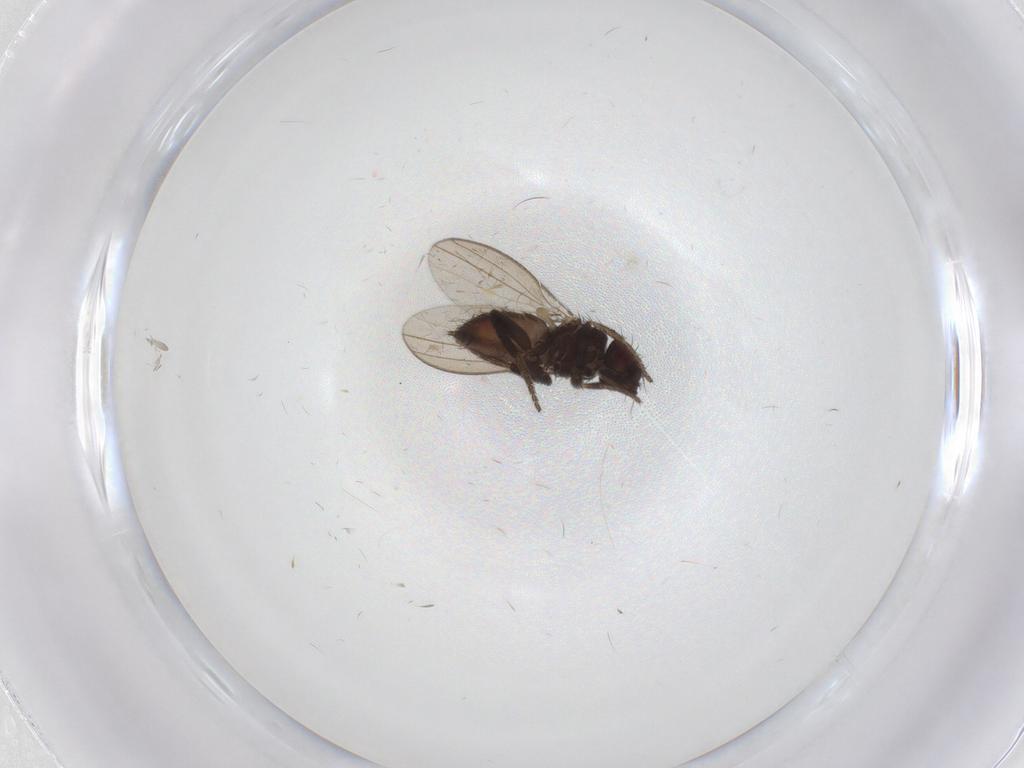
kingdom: Animalia
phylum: Arthropoda
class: Insecta
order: Diptera
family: Milichiidae
